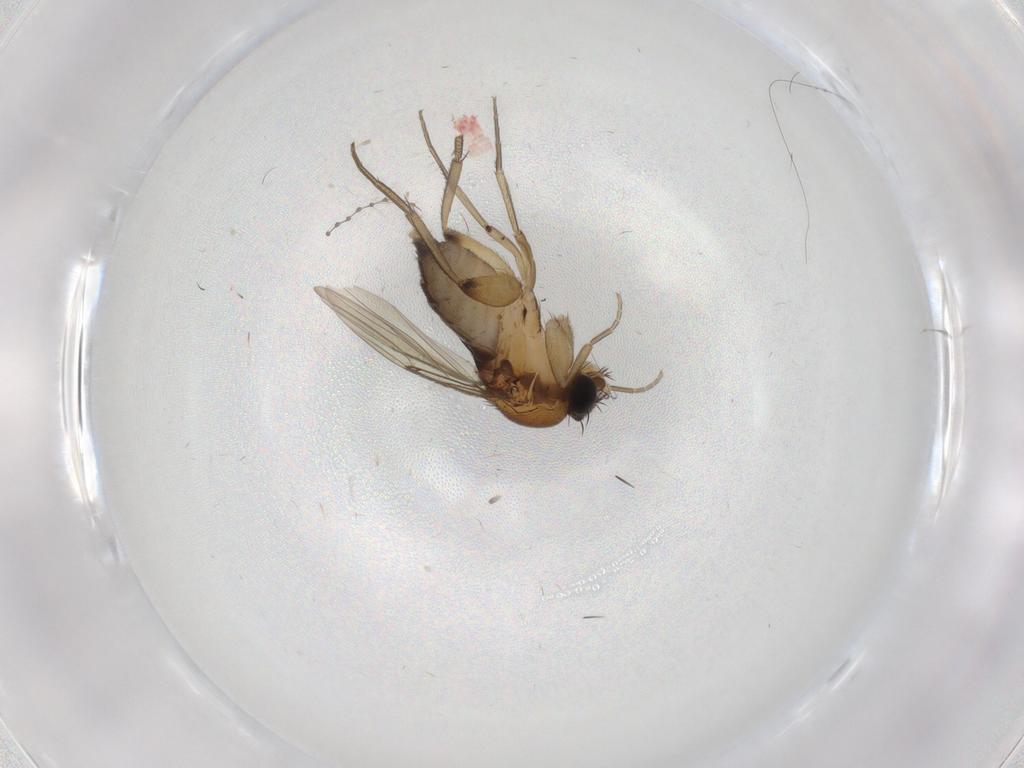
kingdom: Animalia
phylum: Arthropoda
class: Insecta
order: Diptera
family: Phoridae
